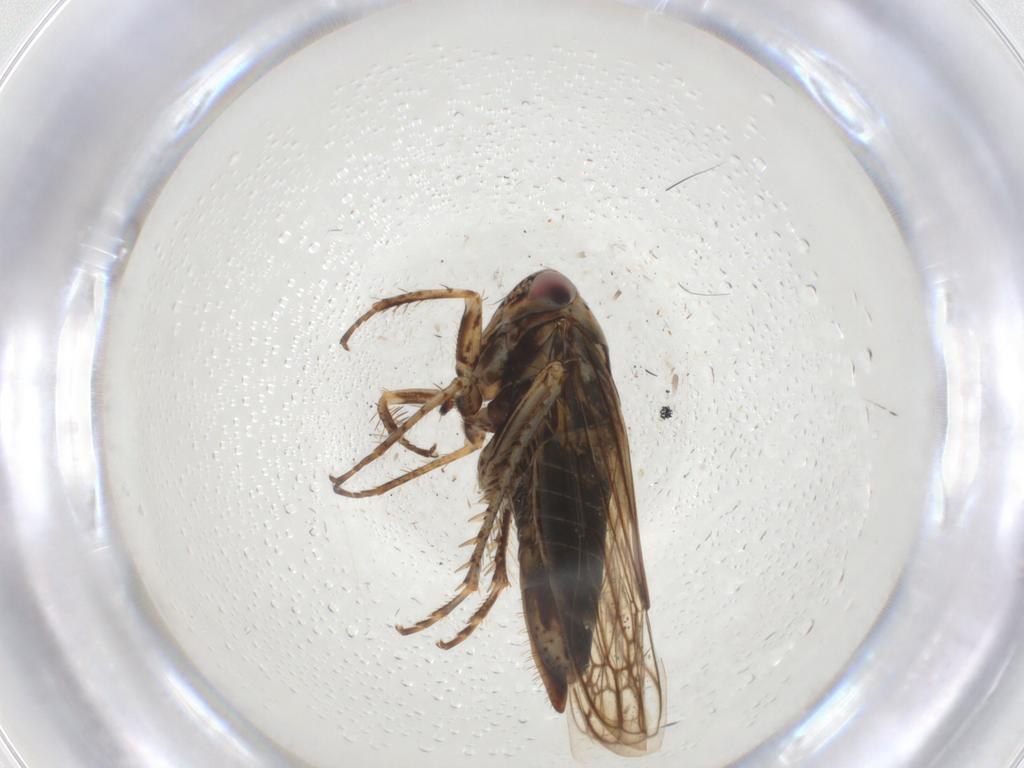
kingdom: Animalia
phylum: Arthropoda
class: Insecta
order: Hemiptera
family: Cicadellidae
